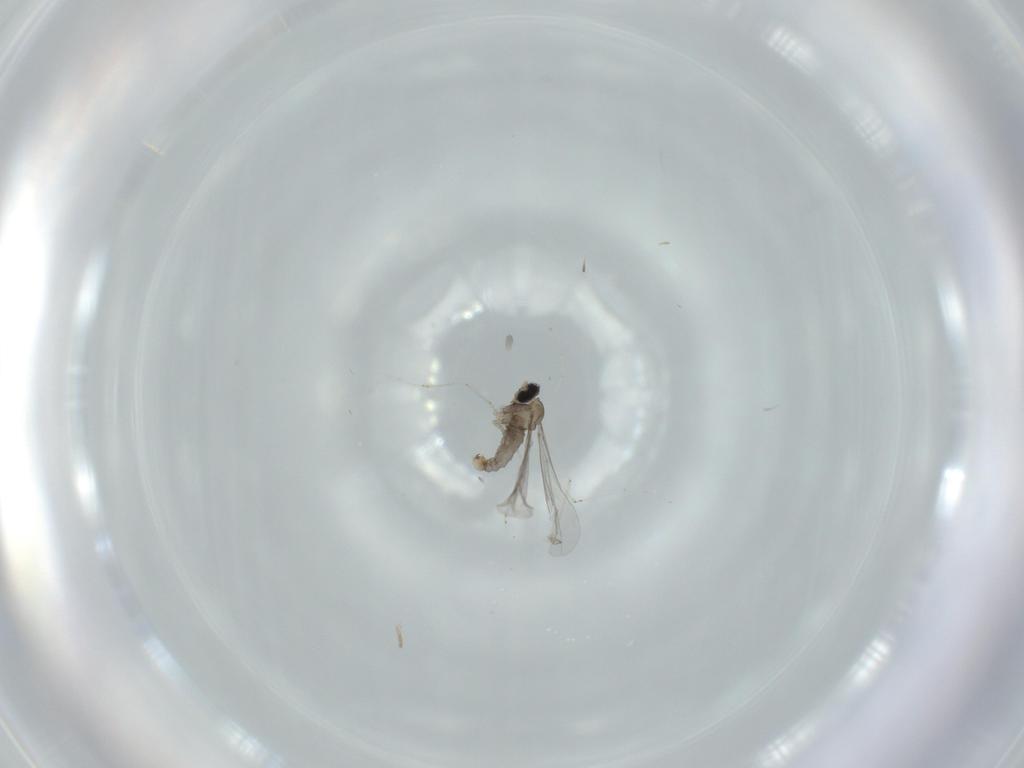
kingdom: Animalia
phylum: Arthropoda
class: Insecta
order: Diptera
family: Cecidomyiidae
